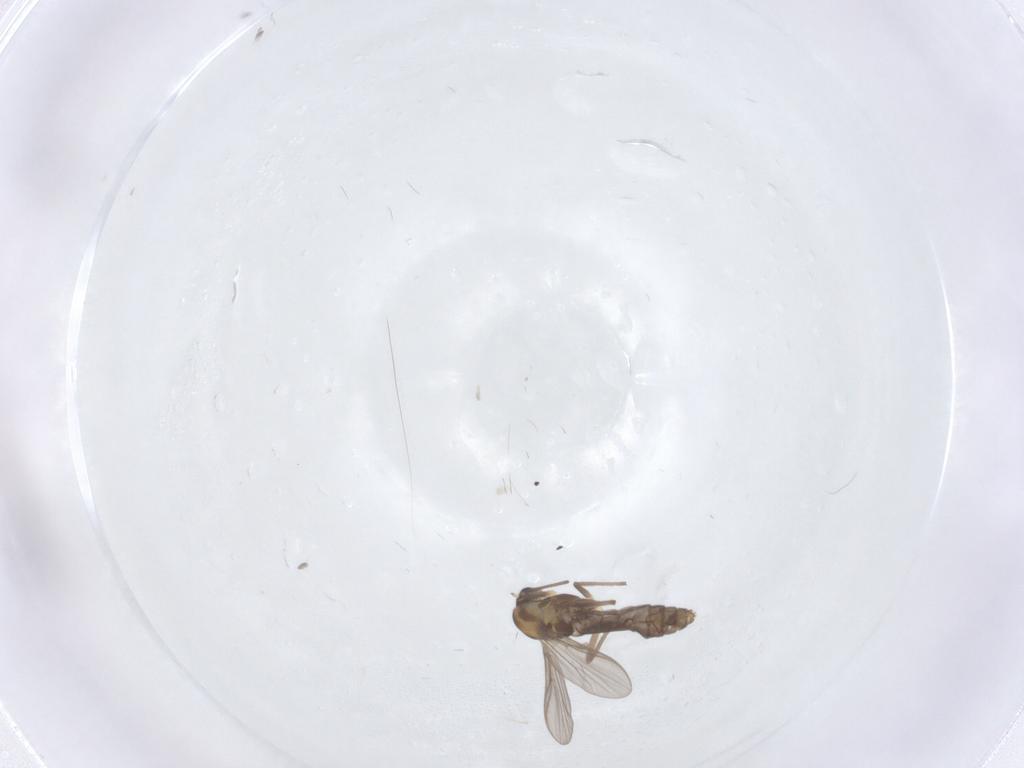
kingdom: Animalia
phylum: Arthropoda
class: Insecta
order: Diptera
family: Chironomidae
